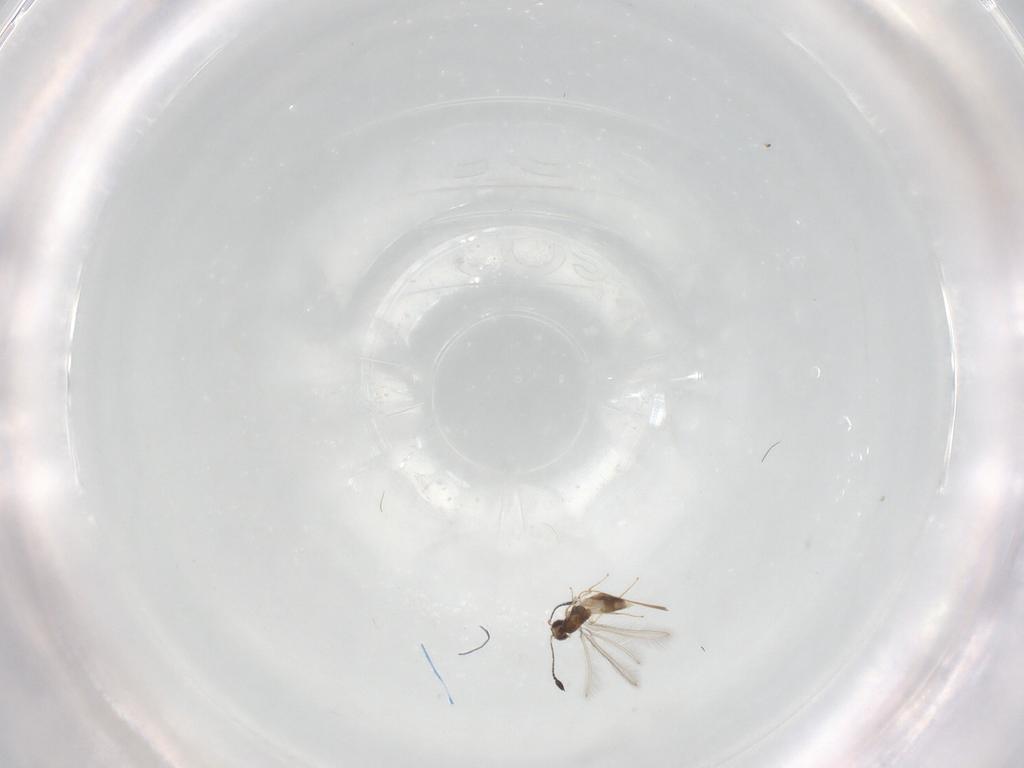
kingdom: Animalia
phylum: Arthropoda
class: Insecta
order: Hymenoptera
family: Mymaridae
